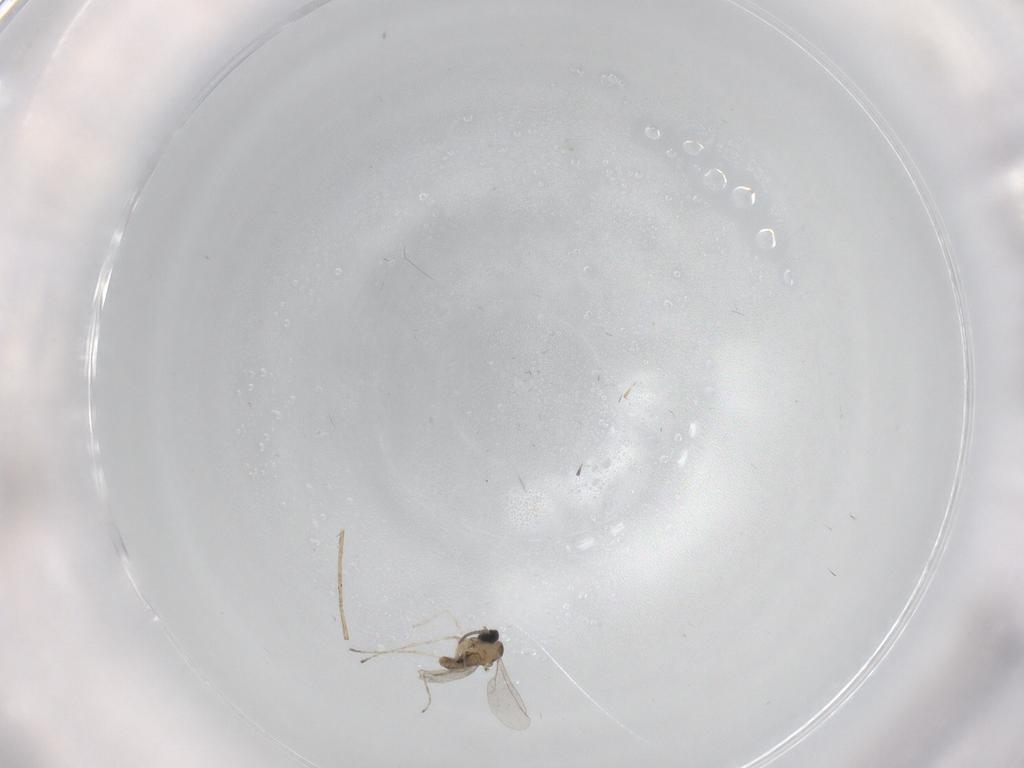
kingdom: Animalia
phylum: Arthropoda
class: Insecta
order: Diptera
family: Cecidomyiidae
